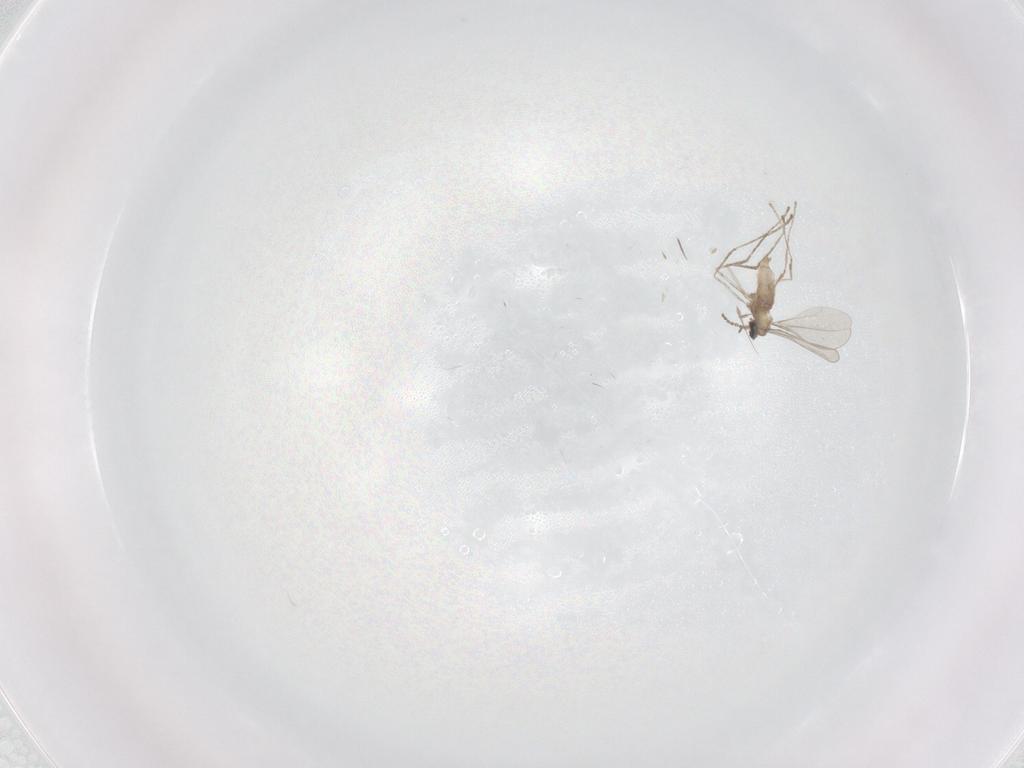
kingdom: Animalia
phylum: Arthropoda
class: Insecta
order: Diptera
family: Cecidomyiidae
